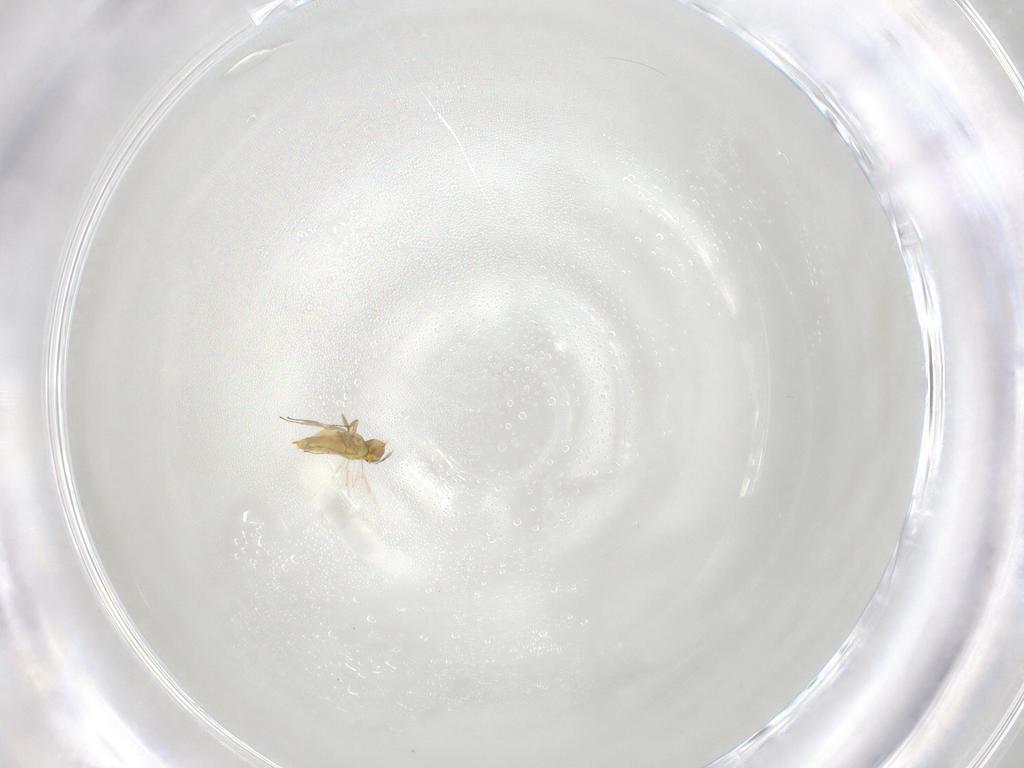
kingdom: Animalia
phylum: Arthropoda
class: Insecta
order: Hymenoptera
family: Aphelinidae
